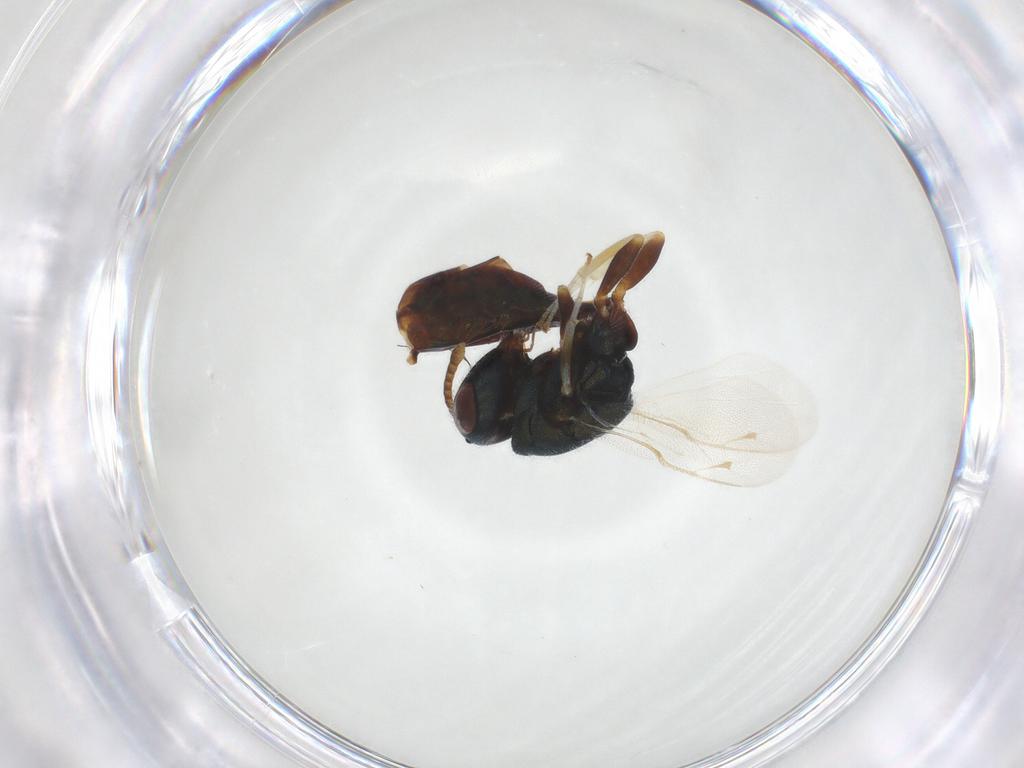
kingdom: Animalia
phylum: Arthropoda
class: Insecta
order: Hymenoptera
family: Pteromalidae
